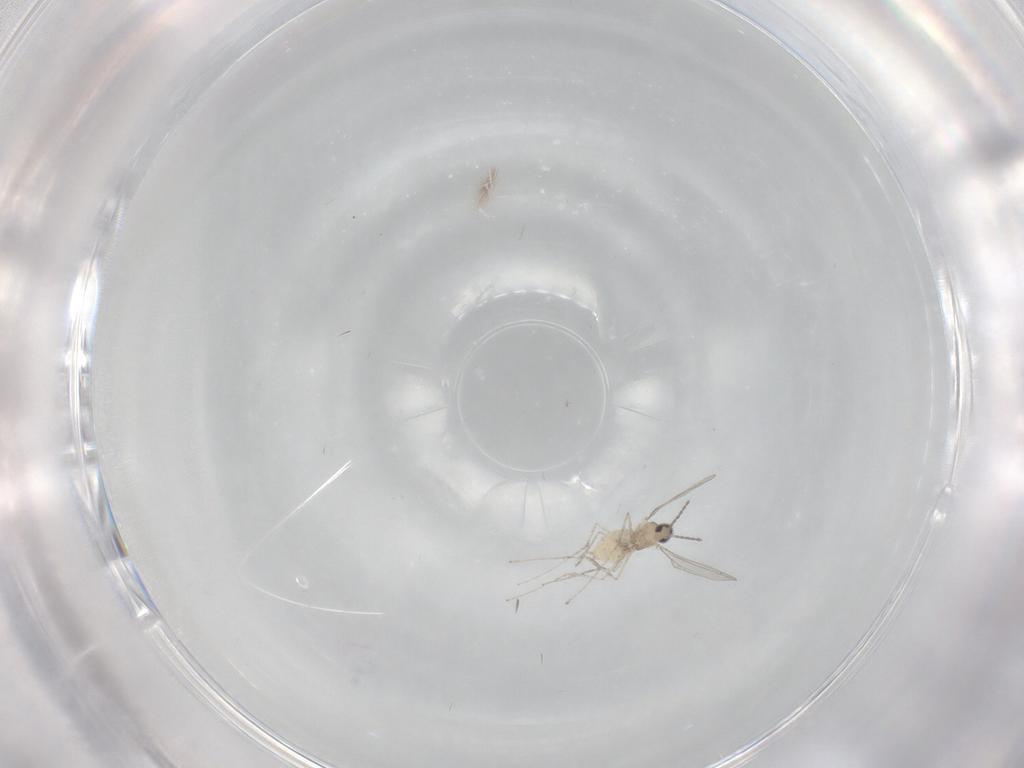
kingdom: Animalia
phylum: Arthropoda
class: Insecta
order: Diptera
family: Cecidomyiidae
